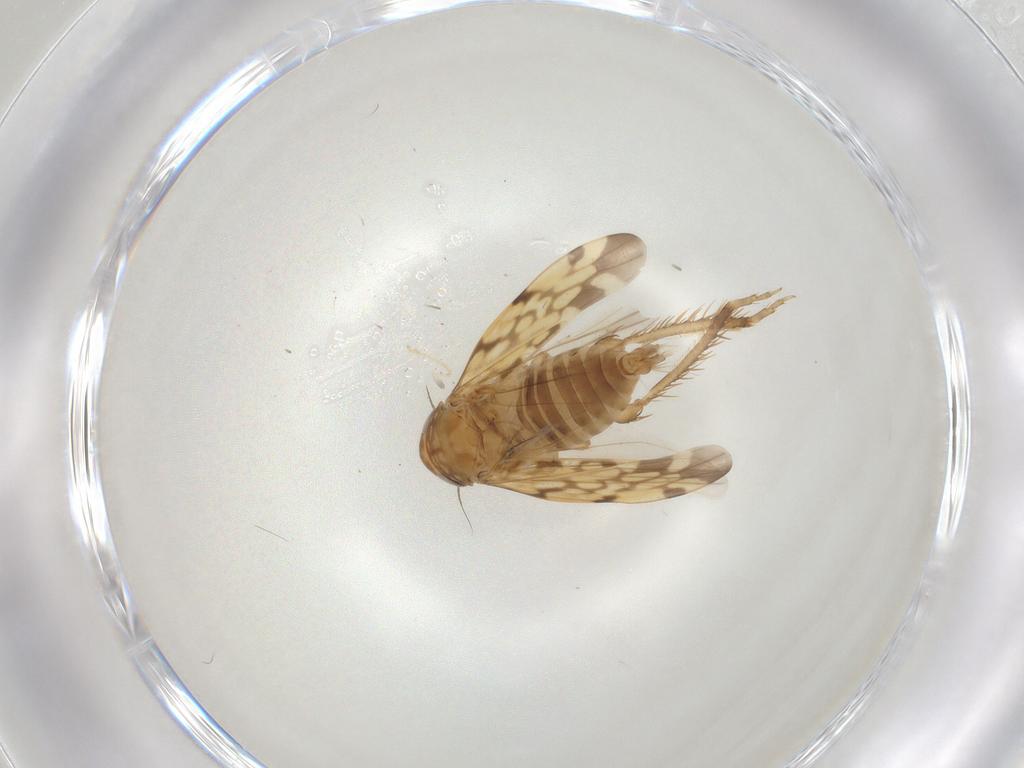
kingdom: Animalia
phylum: Arthropoda
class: Insecta
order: Hemiptera
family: Cicadellidae
